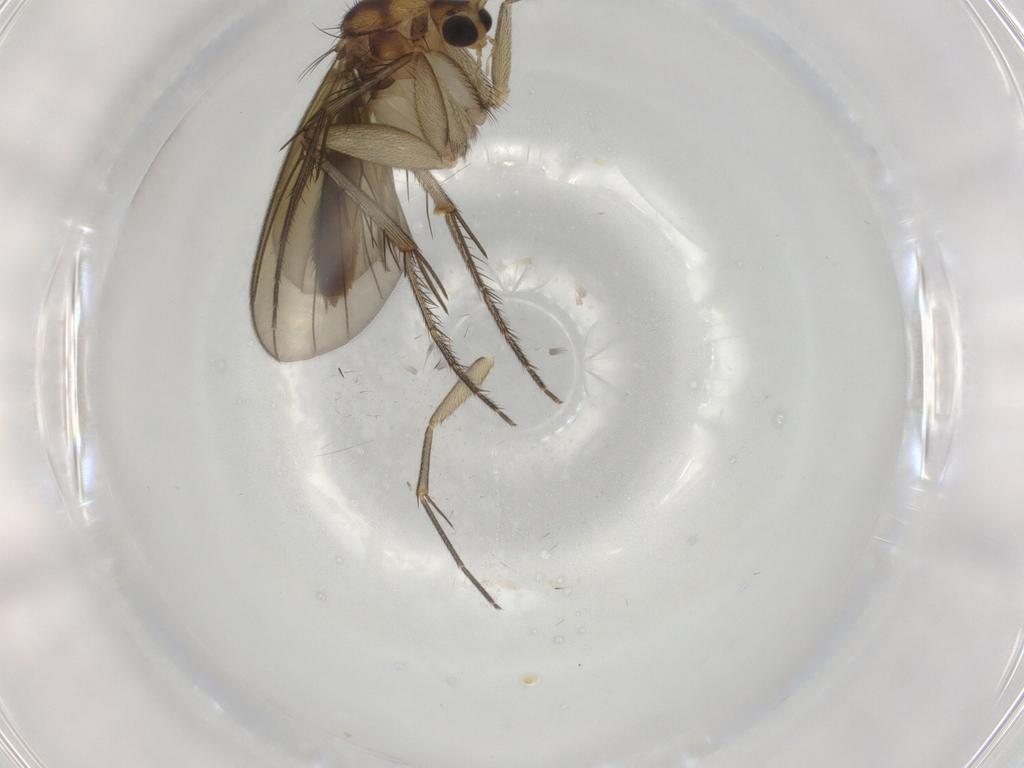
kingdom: Animalia
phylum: Arthropoda
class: Insecta
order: Diptera
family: Mycetophilidae
